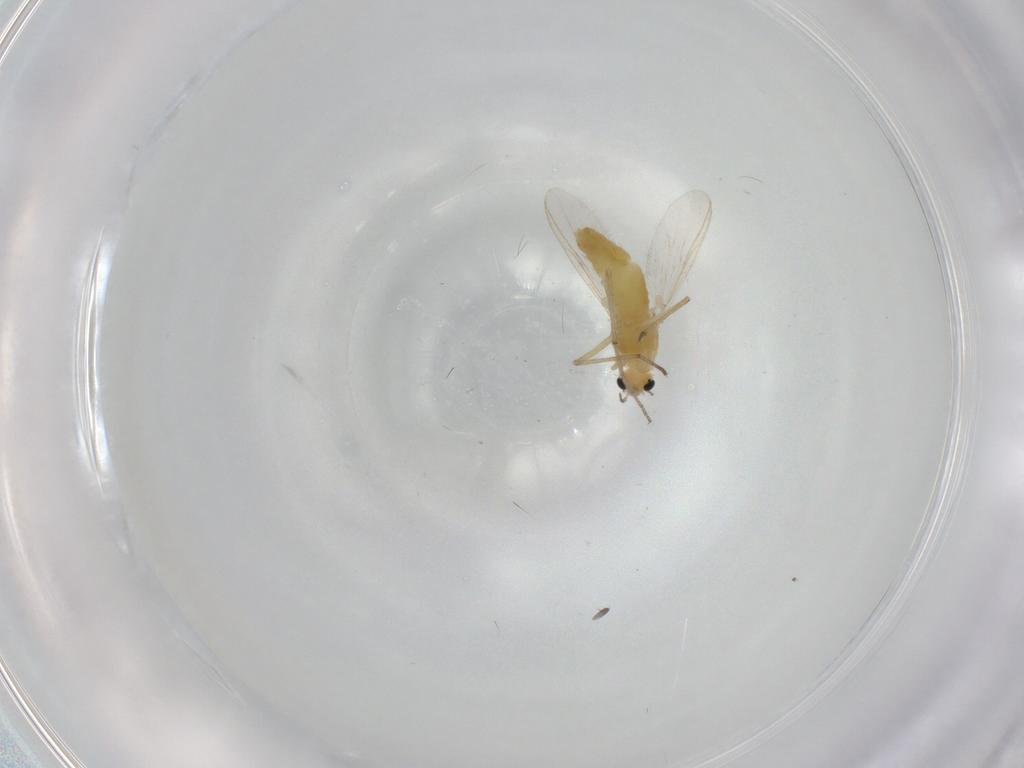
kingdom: Animalia
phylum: Arthropoda
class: Insecta
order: Diptera
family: Chironomidae
